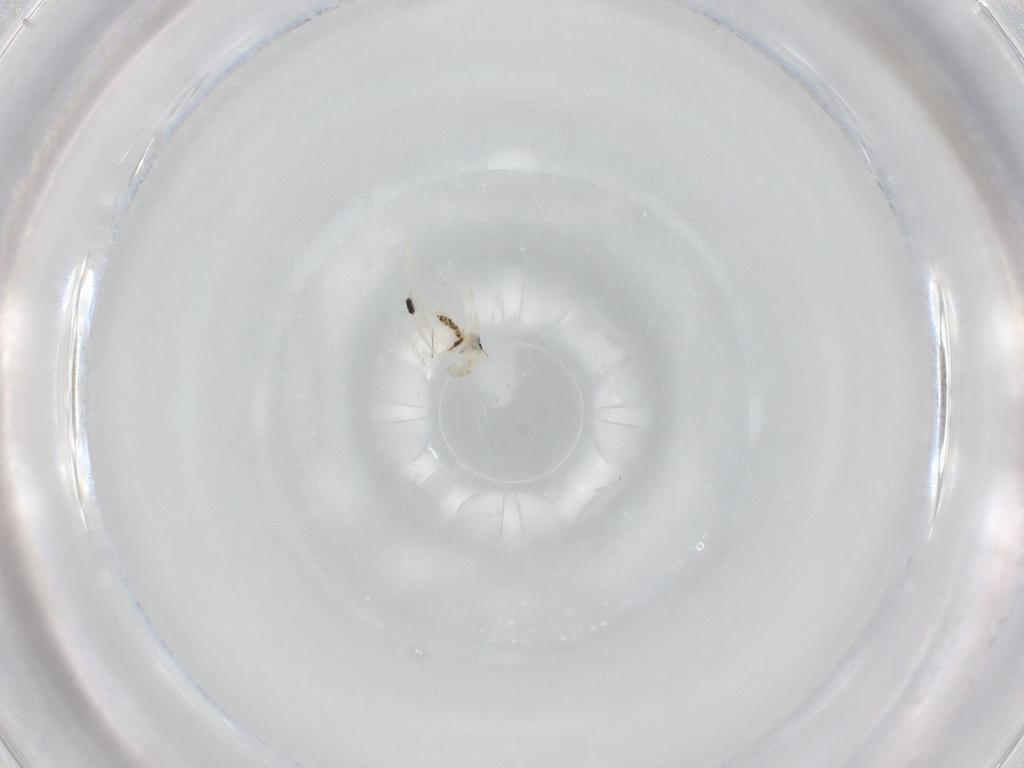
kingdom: Animalia
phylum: Arthropoda
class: Collembola
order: Entomobryomorpha
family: Entomobryidae
